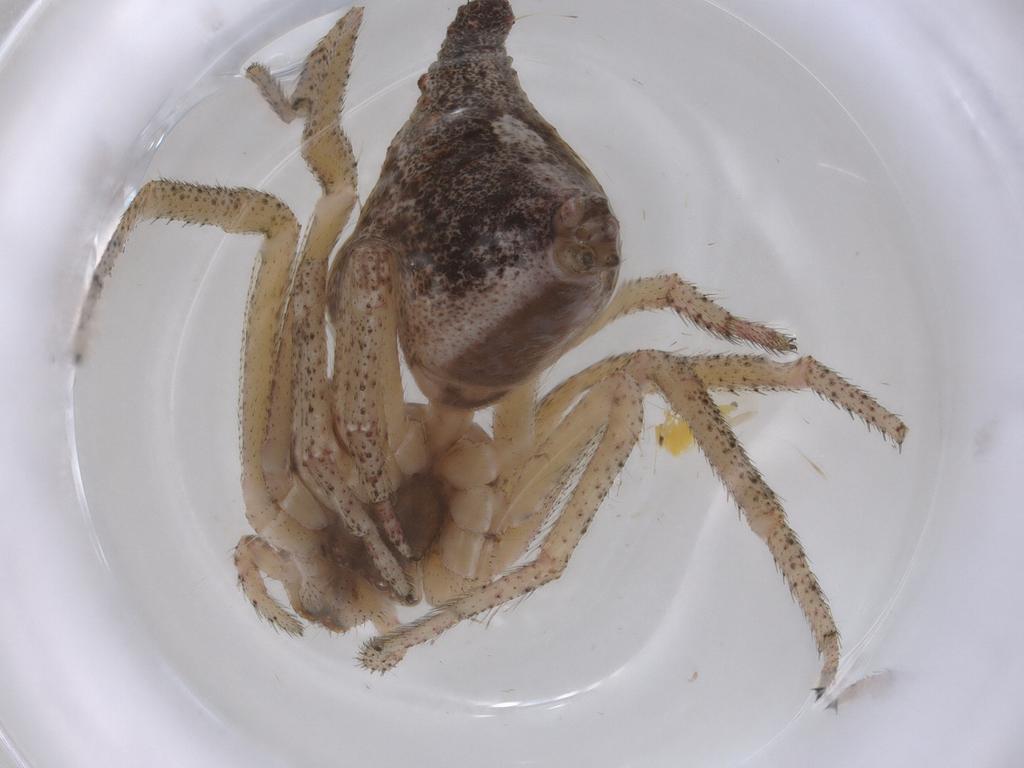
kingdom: Animalia
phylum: Arthropoda
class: Arachnida
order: Araneae
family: Thomisidae
